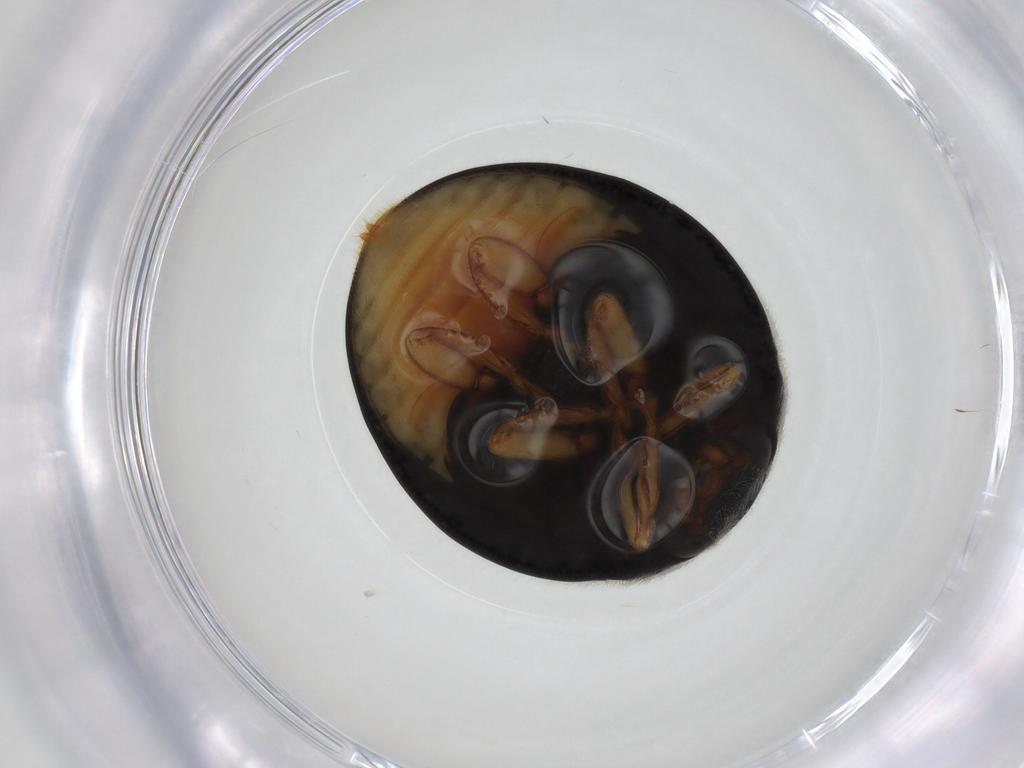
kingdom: Animalia
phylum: Arthropoda
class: Insecta
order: Coleoptera
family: Coccinellidae
